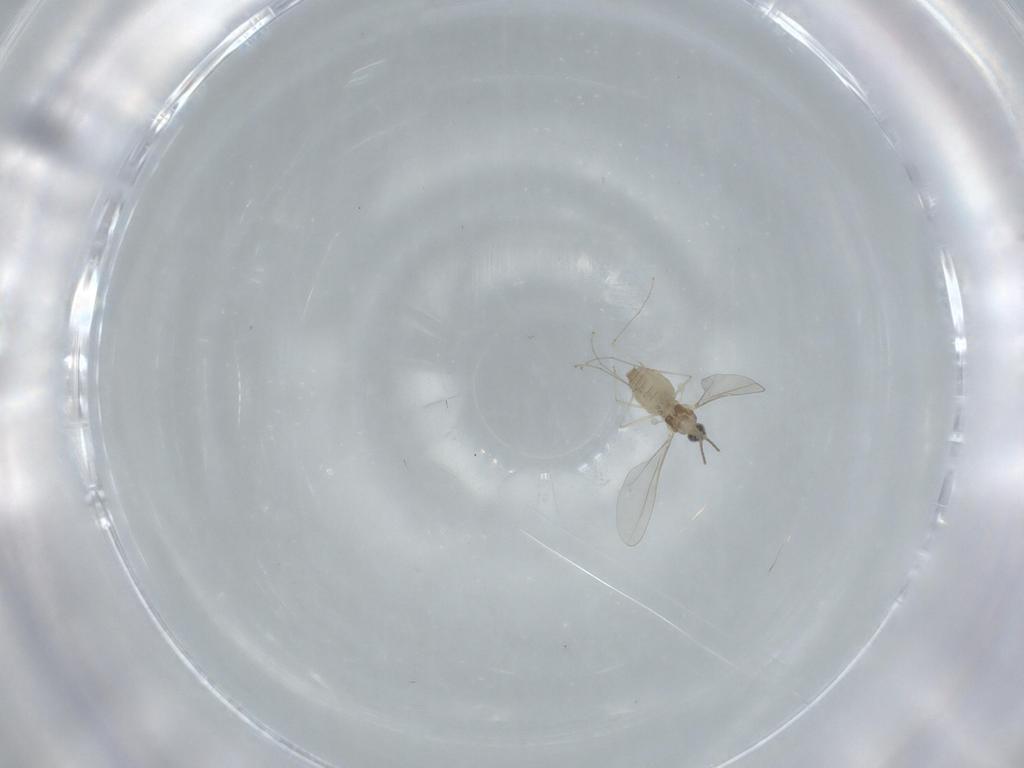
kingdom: Animalia
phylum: Arthropoda
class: Insecta
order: Diptera
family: Cecidomyiidae
